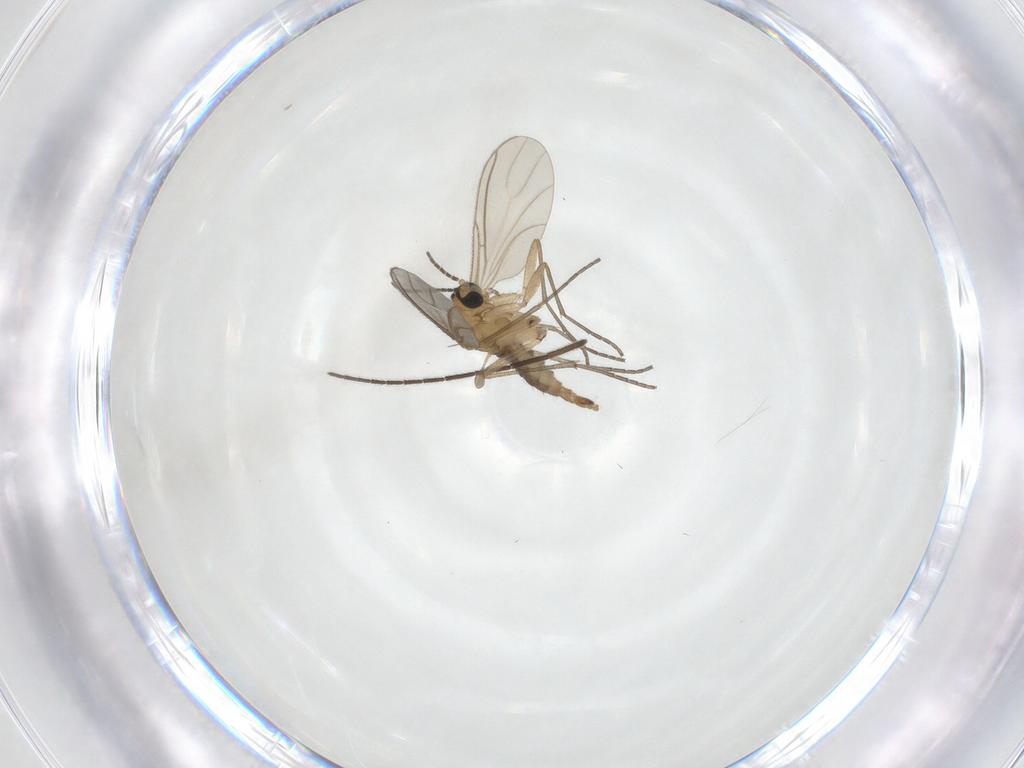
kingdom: Animalia
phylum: Arthropoda
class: Insecta
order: Diptera
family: Sciaridae
